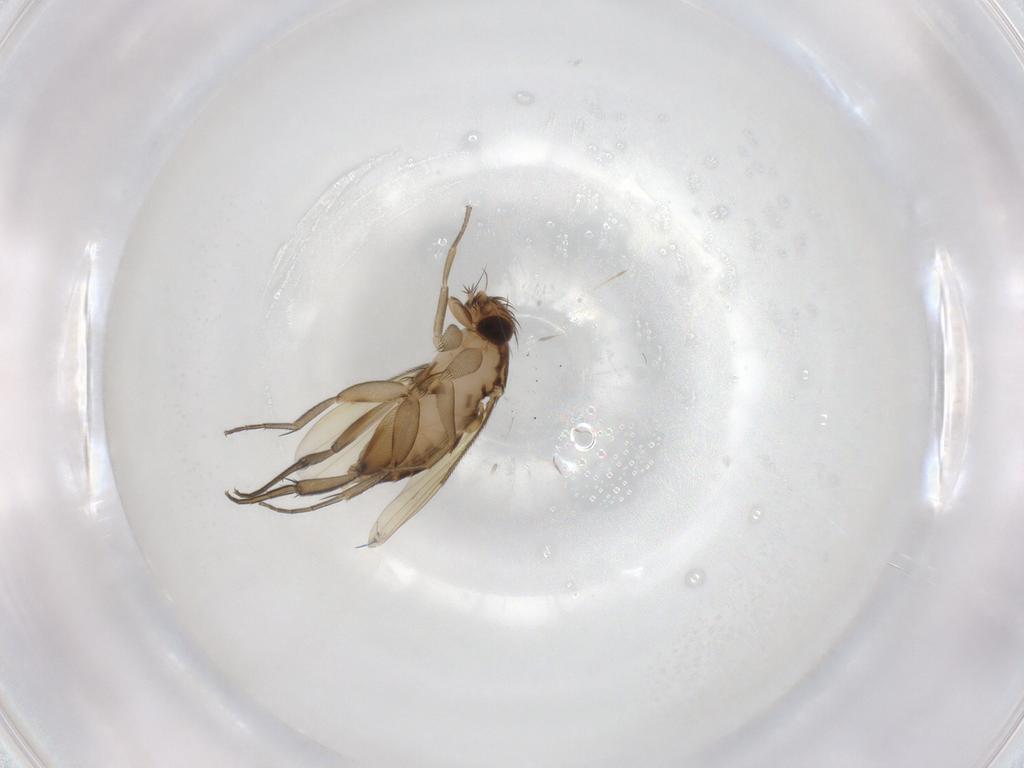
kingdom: Animalia
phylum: Arthropoda
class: Insecta
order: Diptera
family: Phoridae
